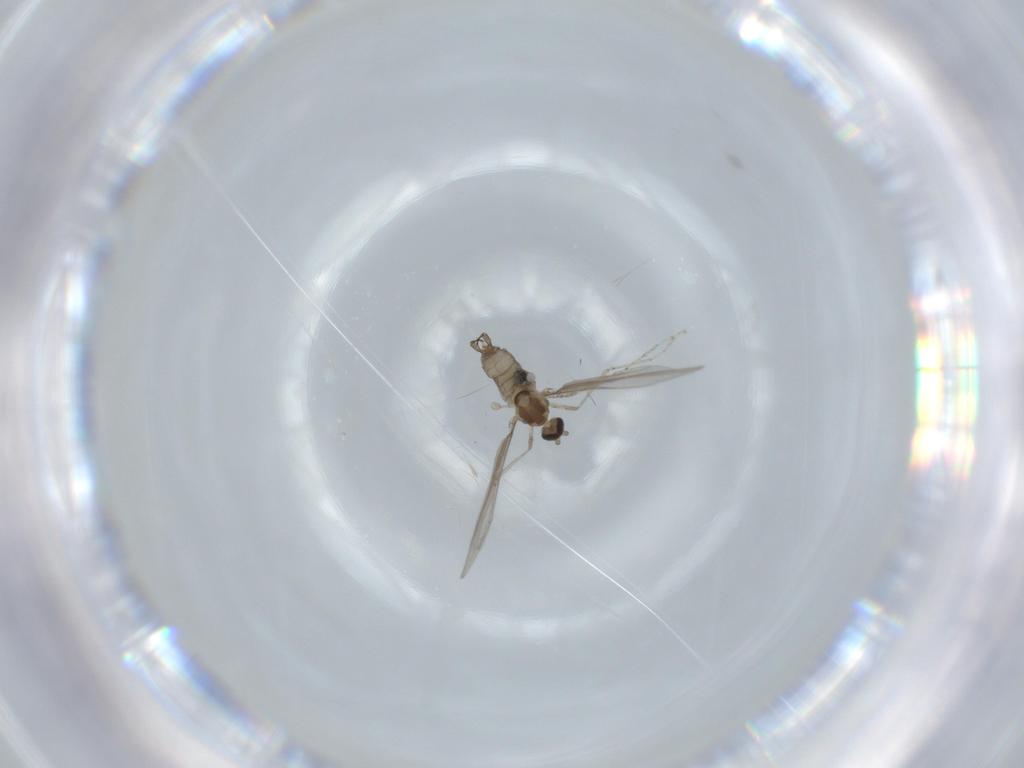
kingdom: Animalia
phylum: Arthropoda
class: Insecta
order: Diptera
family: Cecidomyiidae
